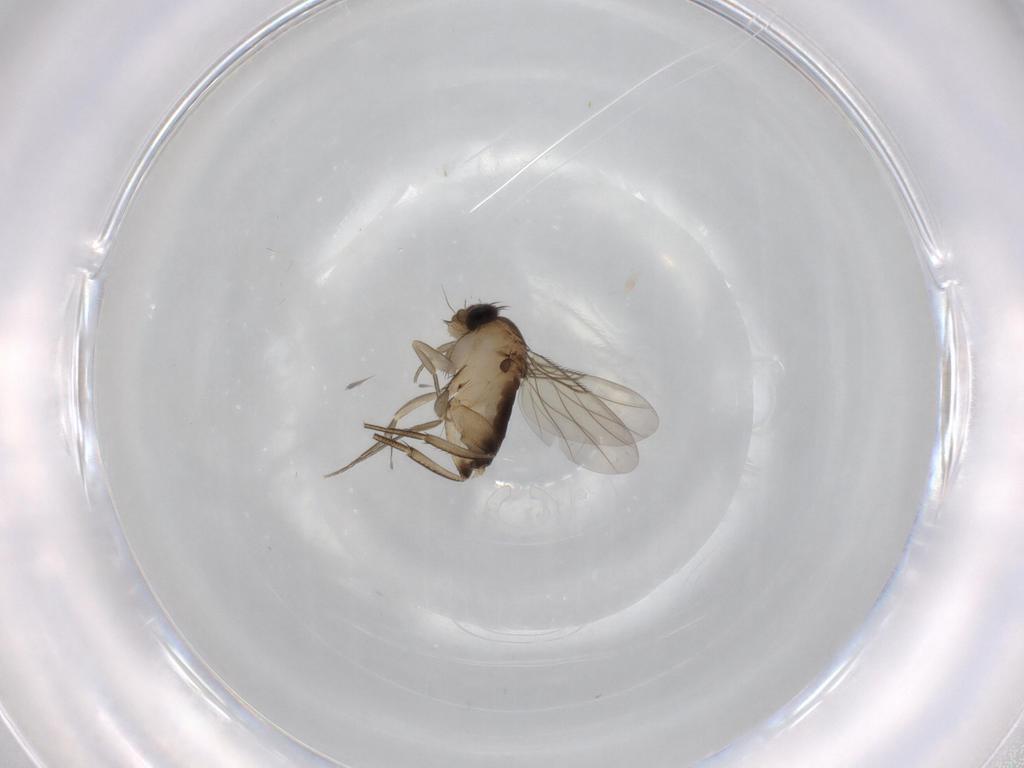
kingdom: Animalia
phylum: Arthropoda
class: Insecta
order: Diptera
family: Phoridae
